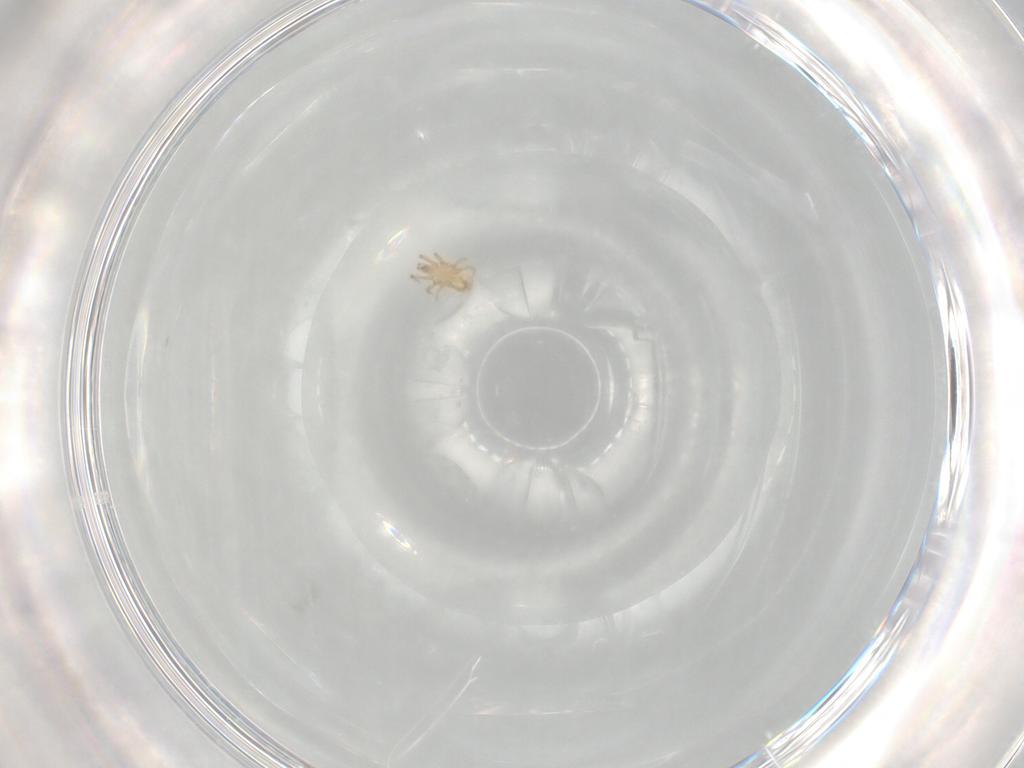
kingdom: Animalia
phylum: Arthropoda
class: Arachnida
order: Mesostigmata
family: Ascidae
